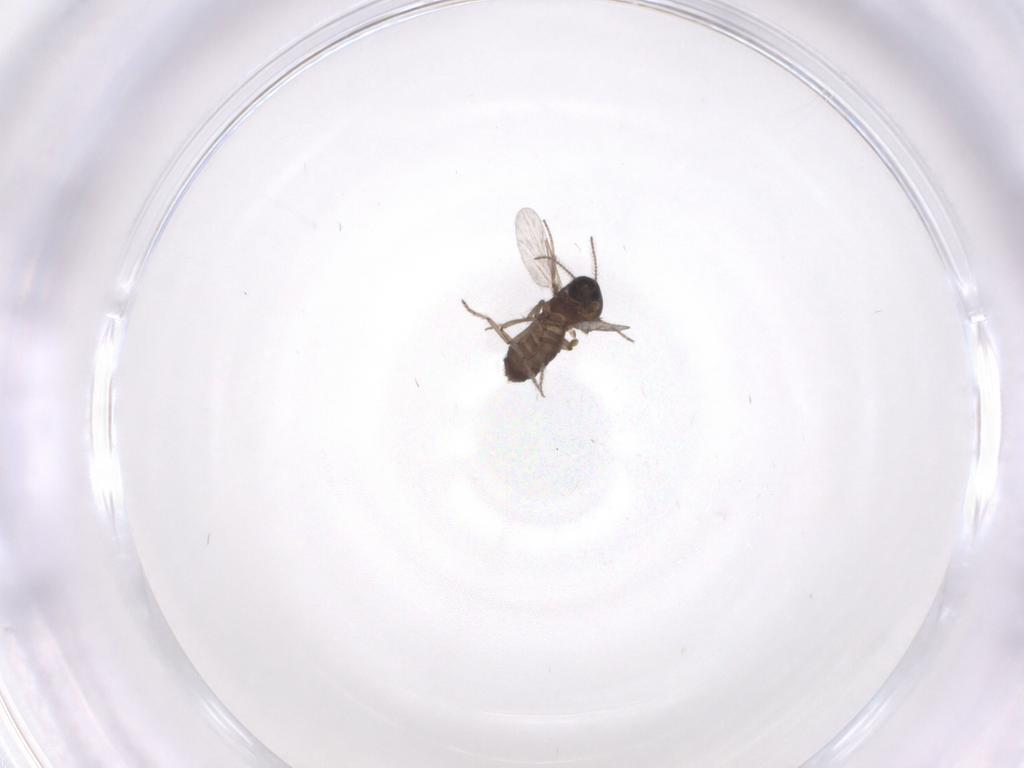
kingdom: Animalia
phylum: Arthropoda
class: Insecta
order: Diptera
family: Ceratopogonidae
